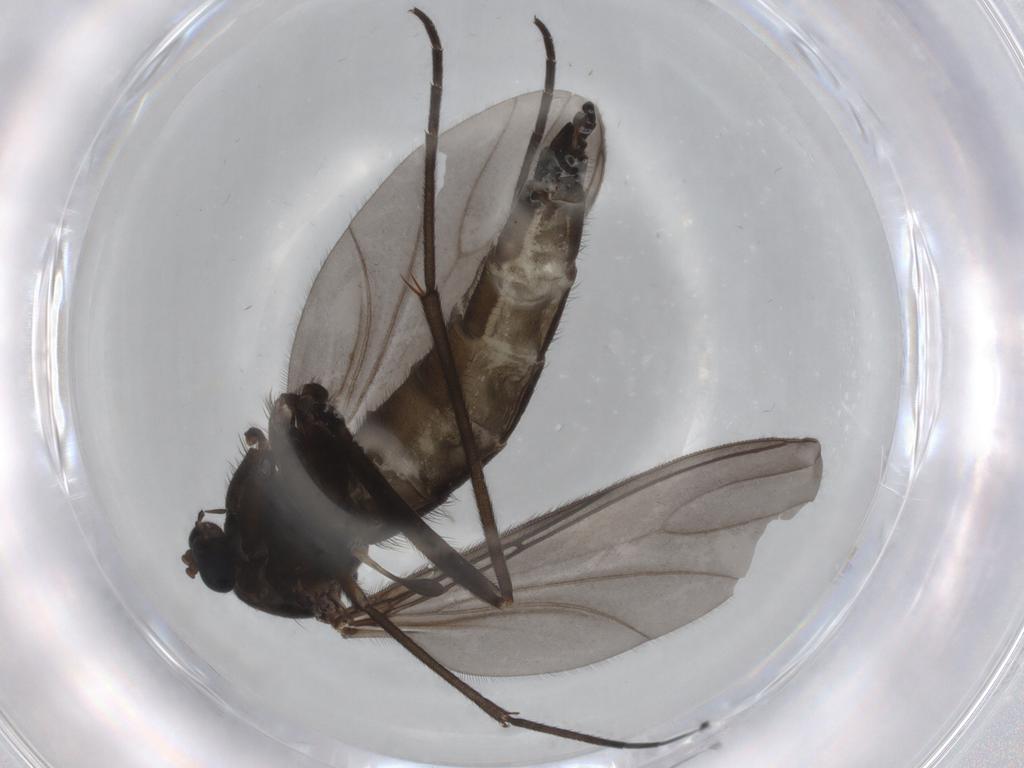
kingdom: Animalia
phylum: Arthropoda
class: Insecta
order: Diptera
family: Sciaridae
